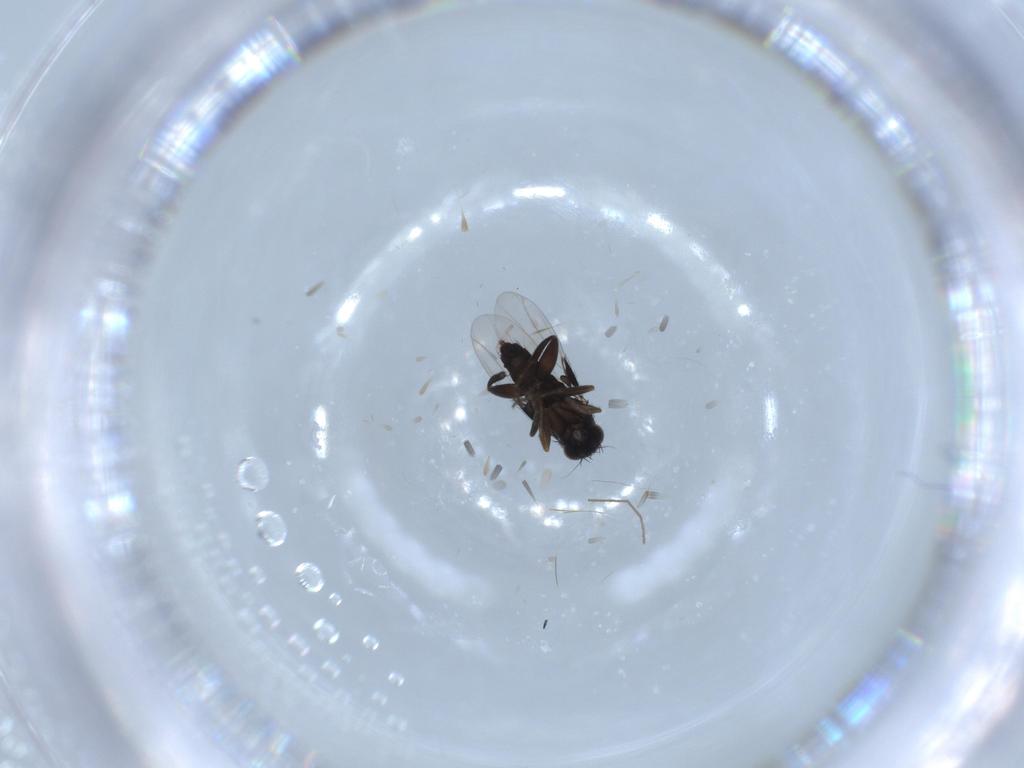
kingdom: Animalia
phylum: Arthropoda
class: Insecta
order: Diptera
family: Phoridae
